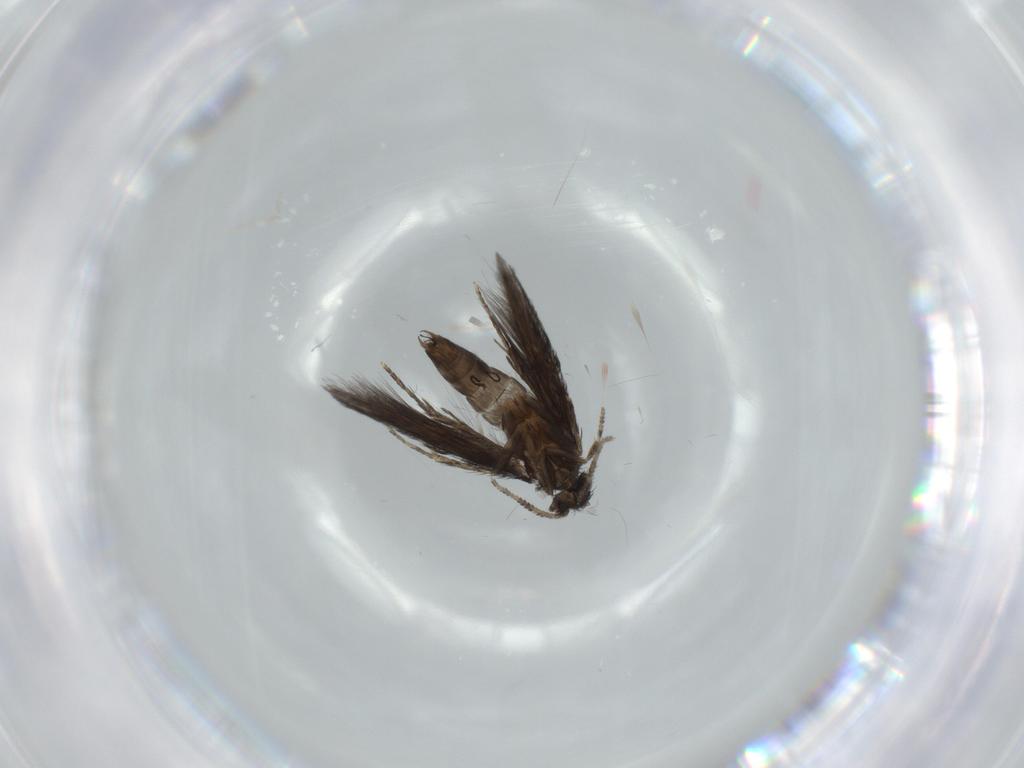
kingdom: Animalia
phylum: Arthropoda
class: Insecta
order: Trichoptera
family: Hydroptilidae
